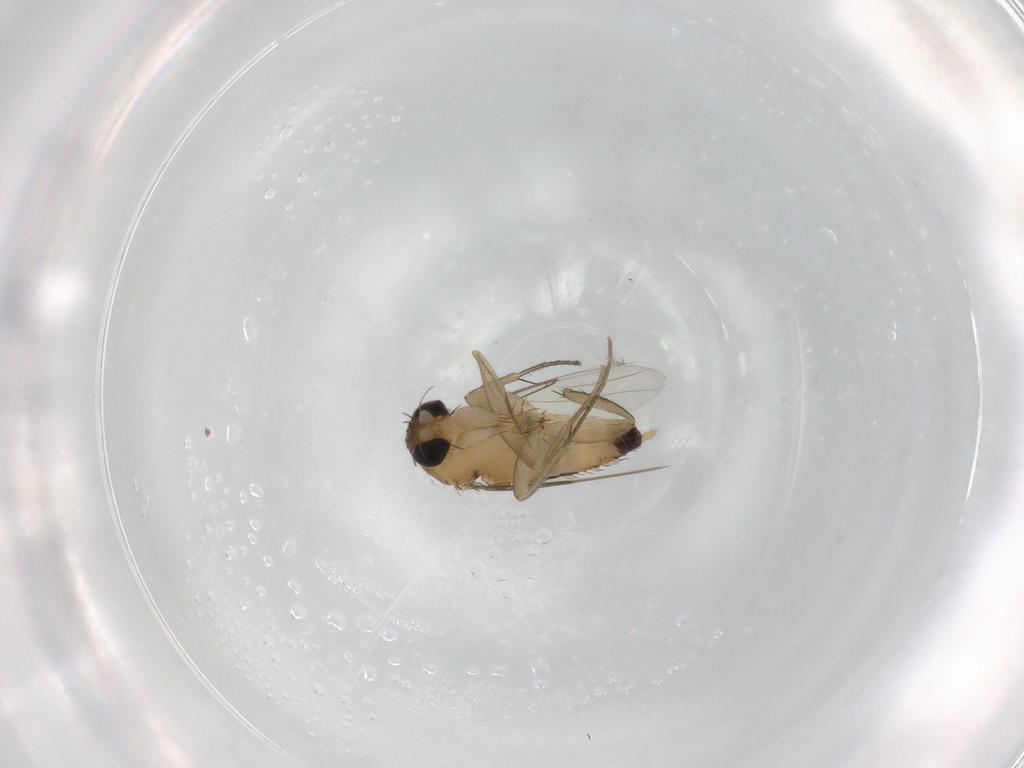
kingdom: Animalia
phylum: Arthropoda
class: Insecta
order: Diptera
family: Phoridae
